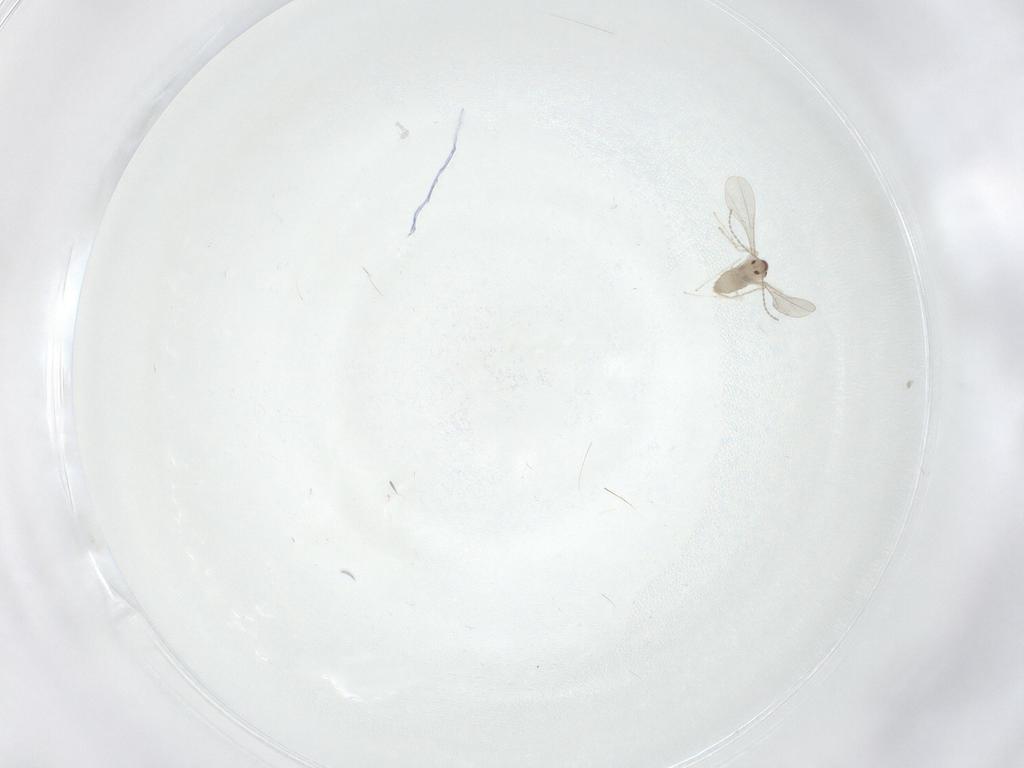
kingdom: Animalia
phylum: Arthropoda
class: Insecta
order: Diptera
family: Cecidomyiidae
